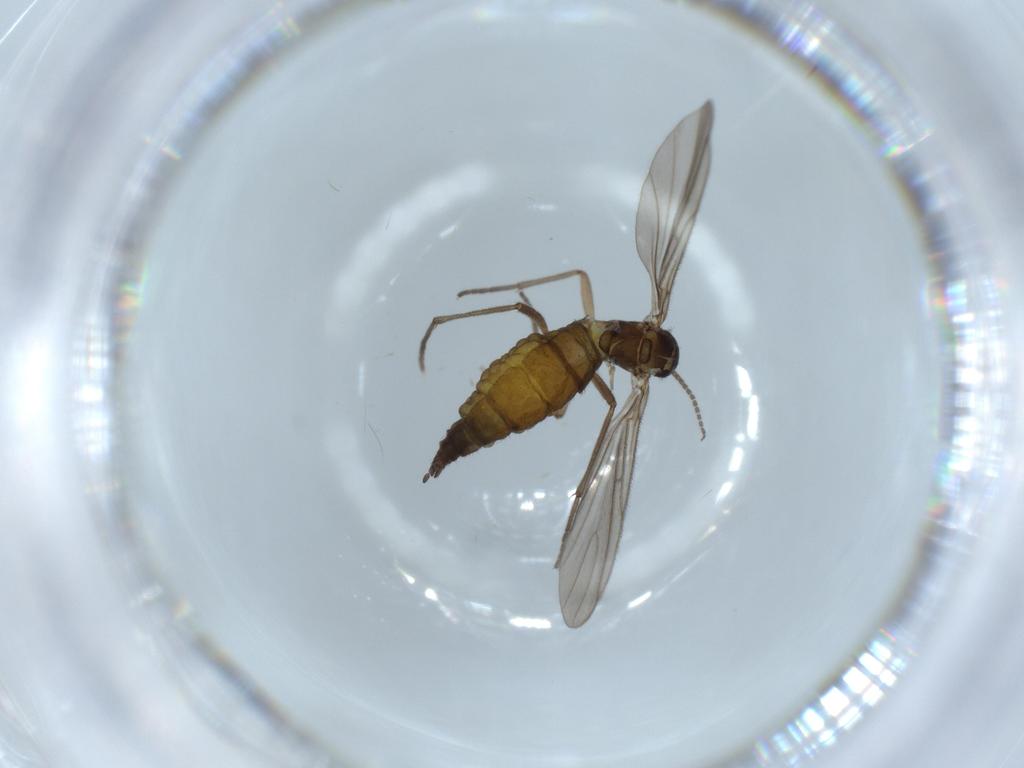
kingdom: Animalia
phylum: Arthropoda
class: Insecta
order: Diptera
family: Sciaridae
